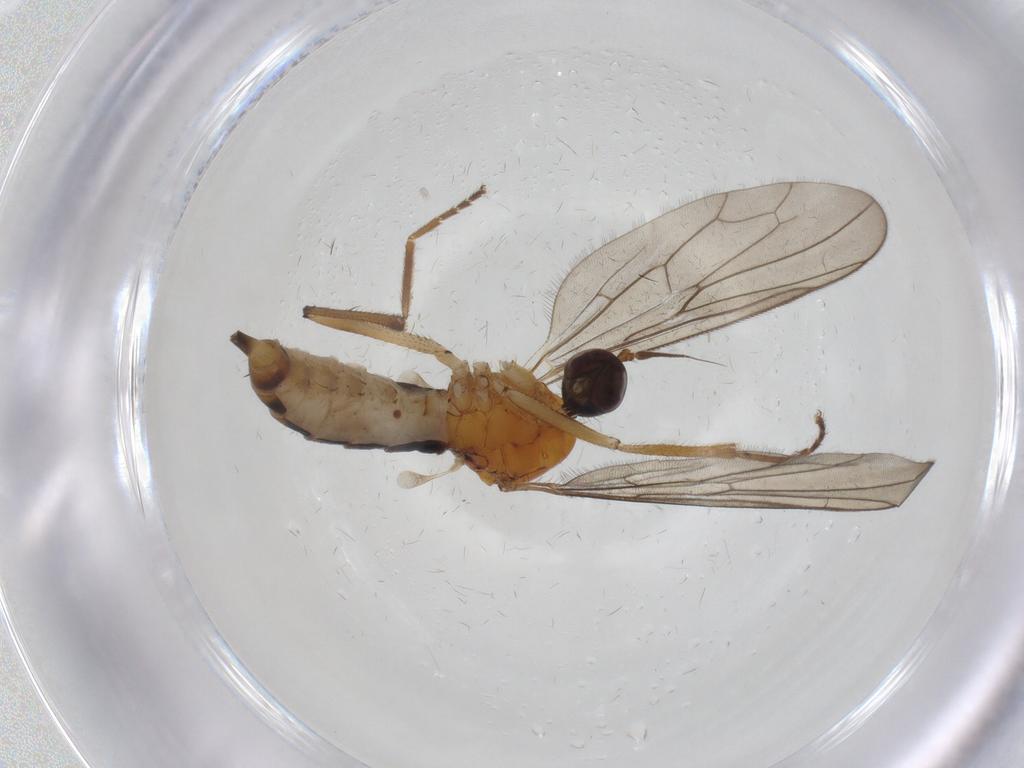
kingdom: Animalia
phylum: Arthropoda
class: Insecta
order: Diptera
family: Hybotidae
